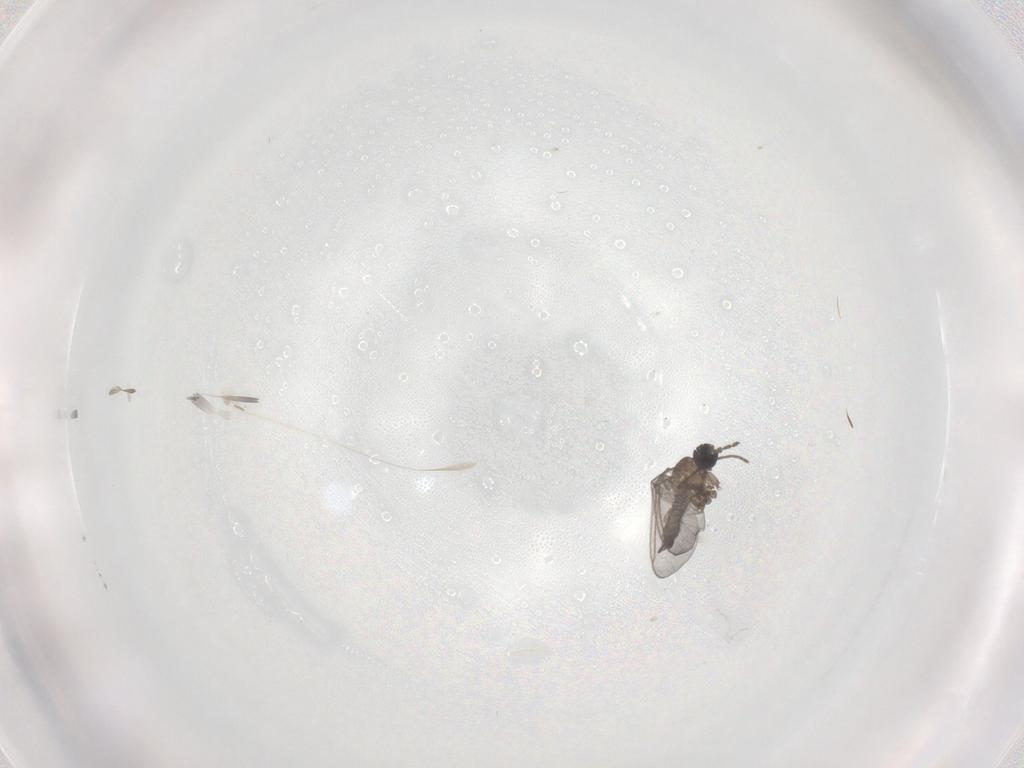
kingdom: Animalia
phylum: Arthropoda
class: Insecta
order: Diptera
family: Sciaridae
